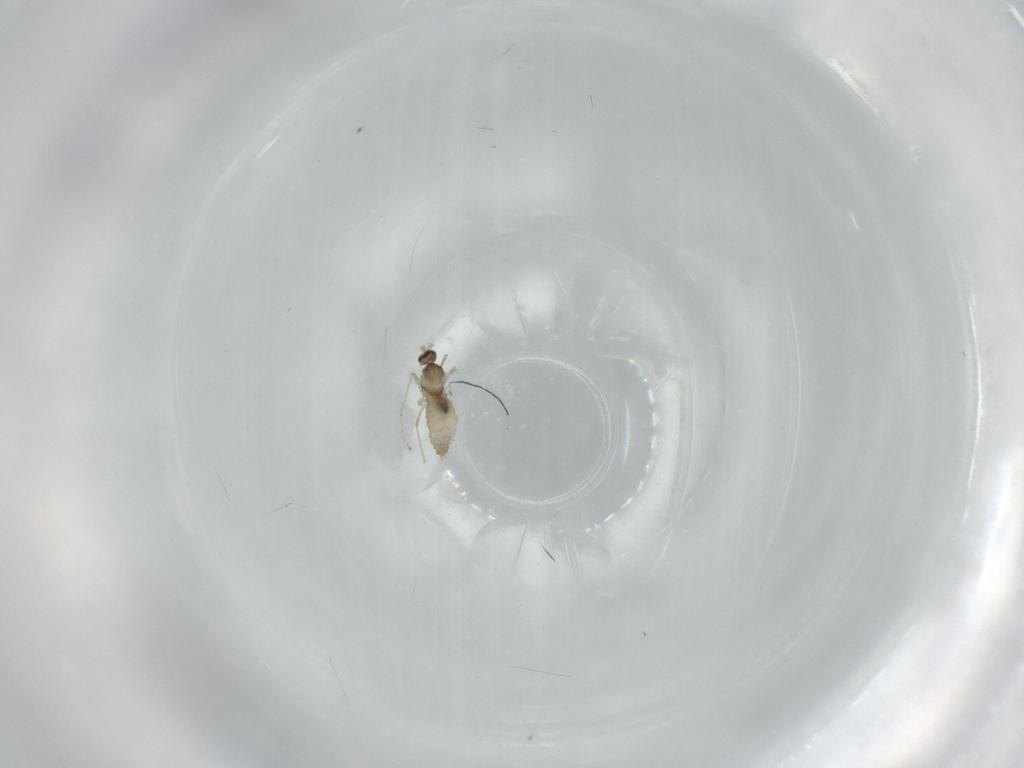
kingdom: Animalia
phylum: Arthropoda
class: Insecta
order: Diptera
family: Cecidomyiidae
